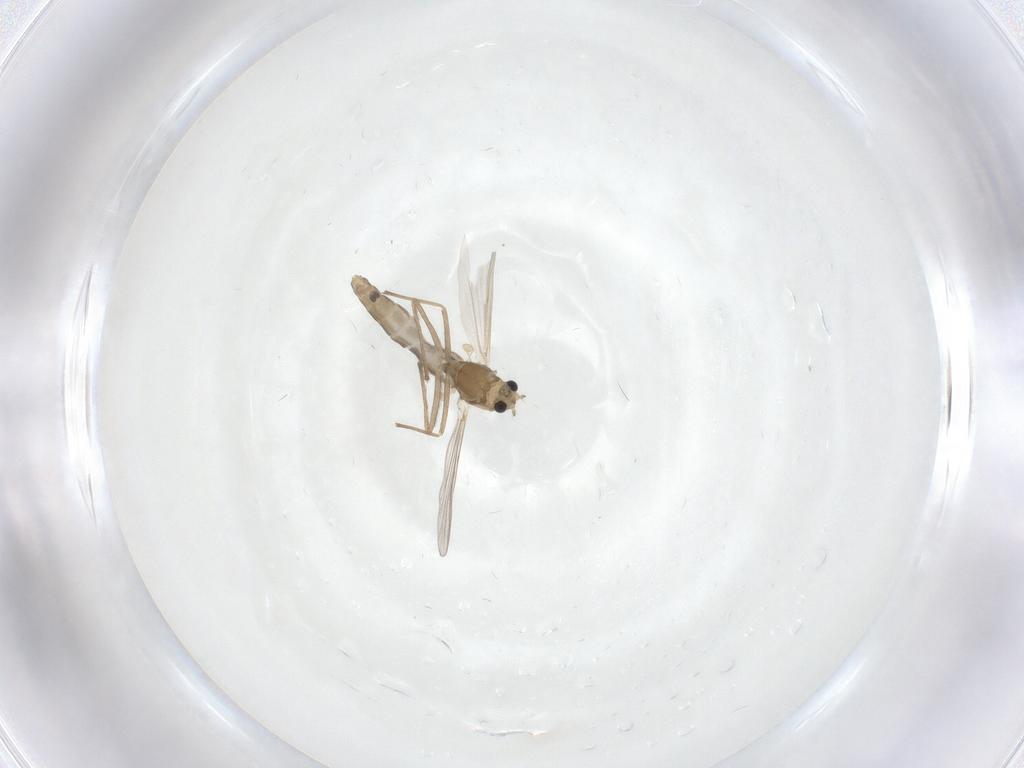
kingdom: Animalia
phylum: Arthropoda
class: Insecta
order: Diptera
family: Chironomidae
